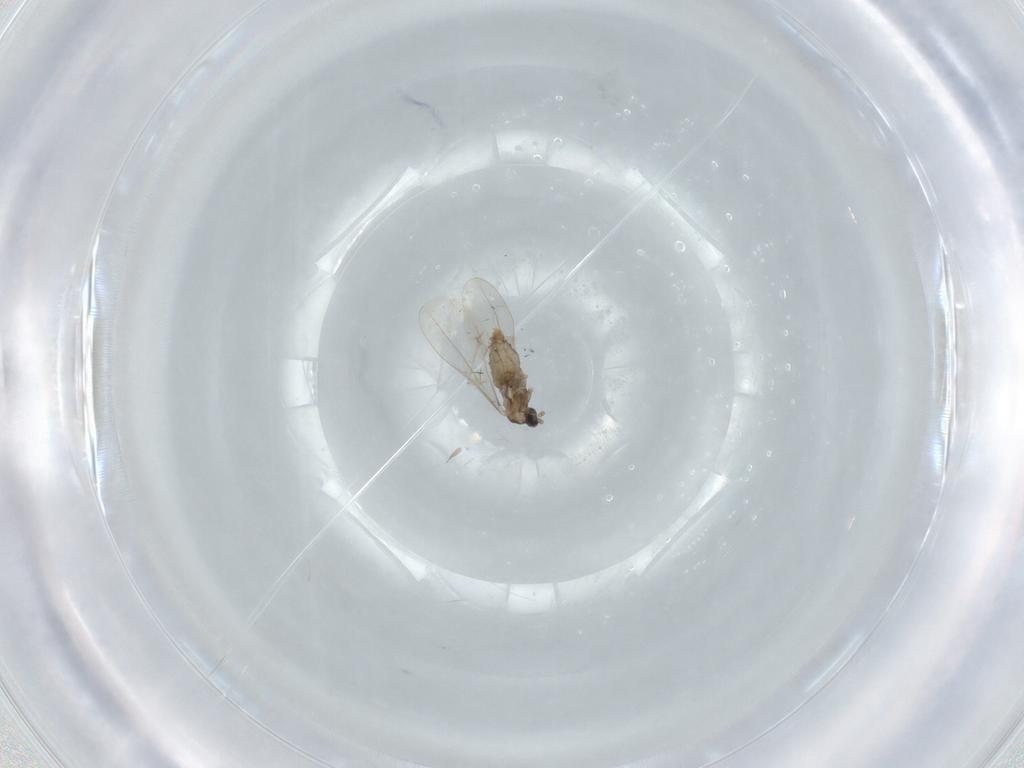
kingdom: Animalia
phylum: Arthropoda
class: Insecta
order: Diptera
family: Cecidomyiidae
